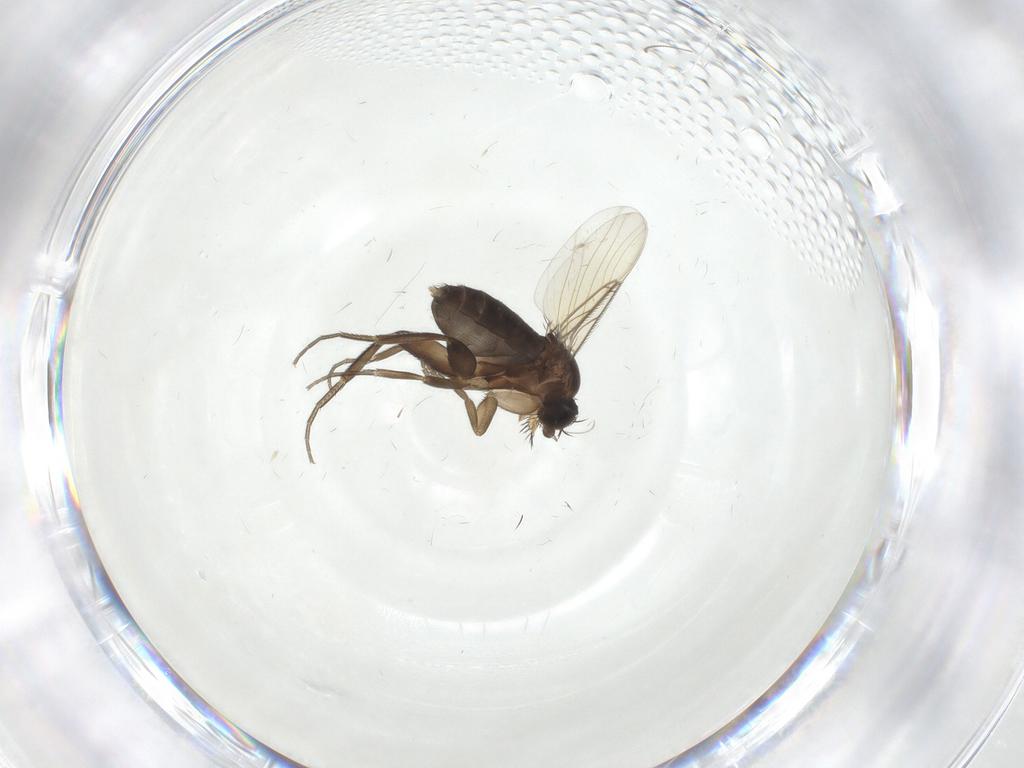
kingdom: Animalia
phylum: Arthropoda
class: Insecta
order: Diptera
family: Phoridae
